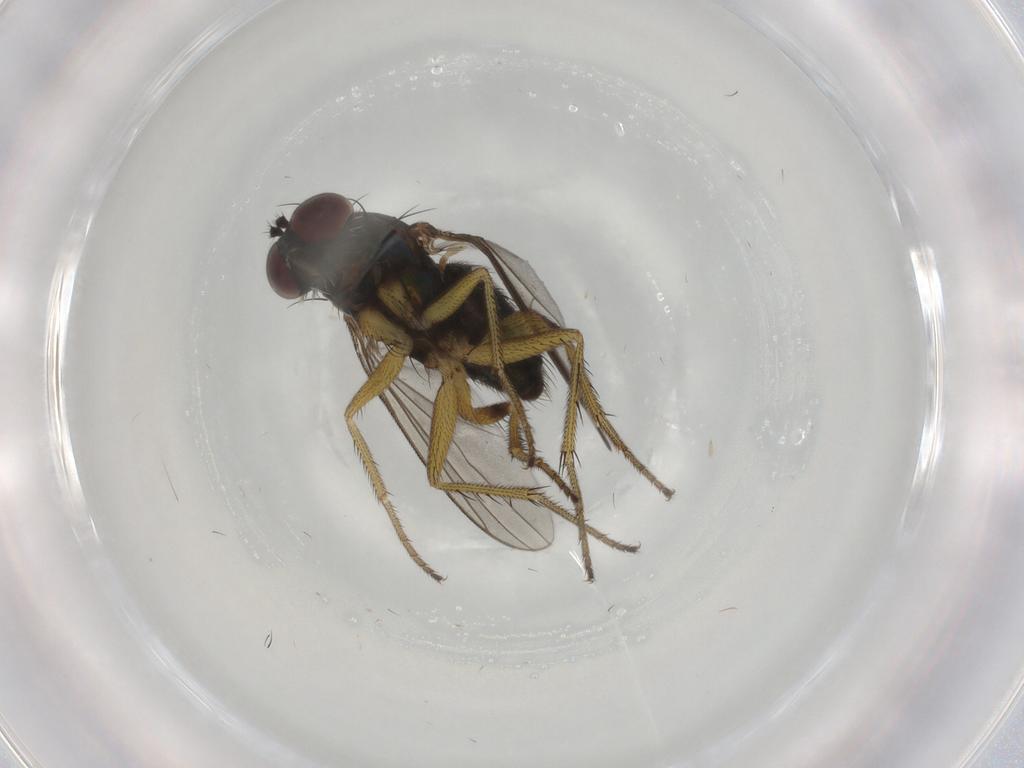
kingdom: Animalia
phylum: Arthropoda
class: Insecta
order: Diptera
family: Dolichopodidae
